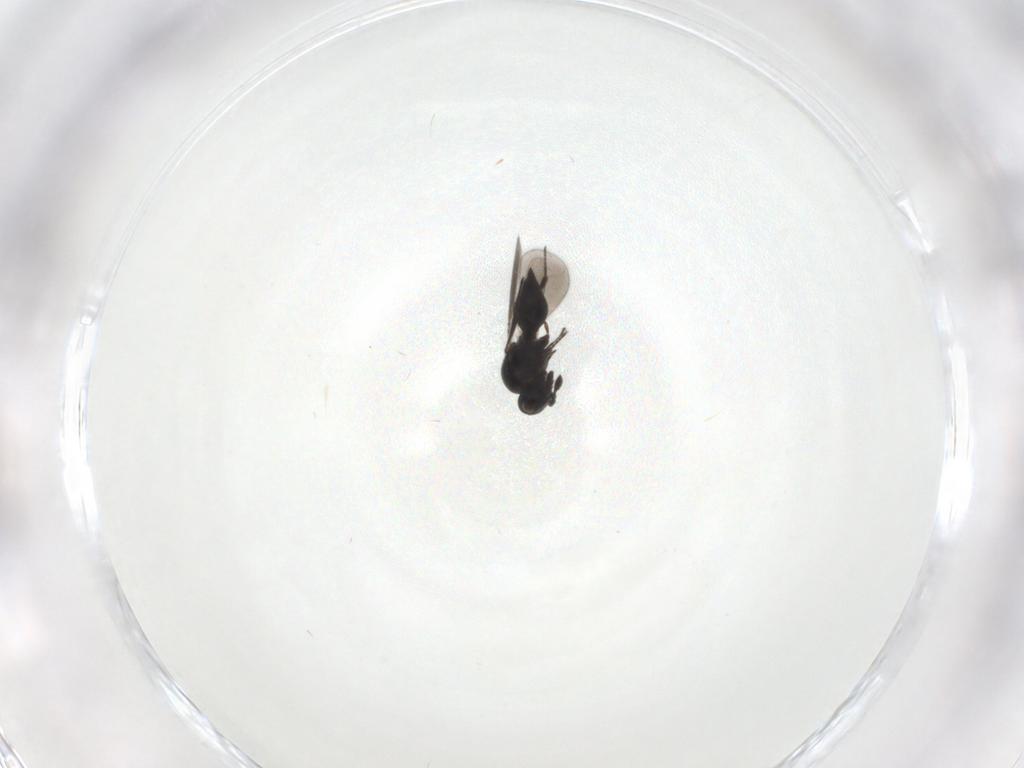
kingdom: Animalia
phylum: Arthropoda
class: Insecta
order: Hymenoptera
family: Platygastridae
